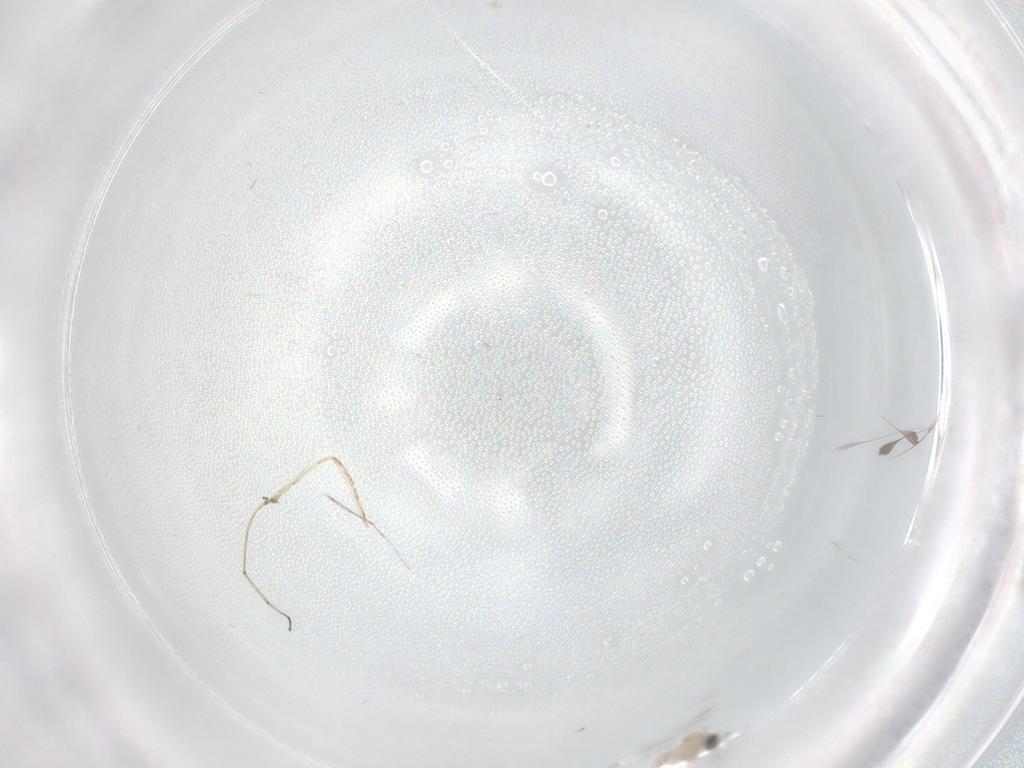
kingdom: Animalia
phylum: Arthropoda
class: Insecta
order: Diptera
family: Cecidomyiidae
